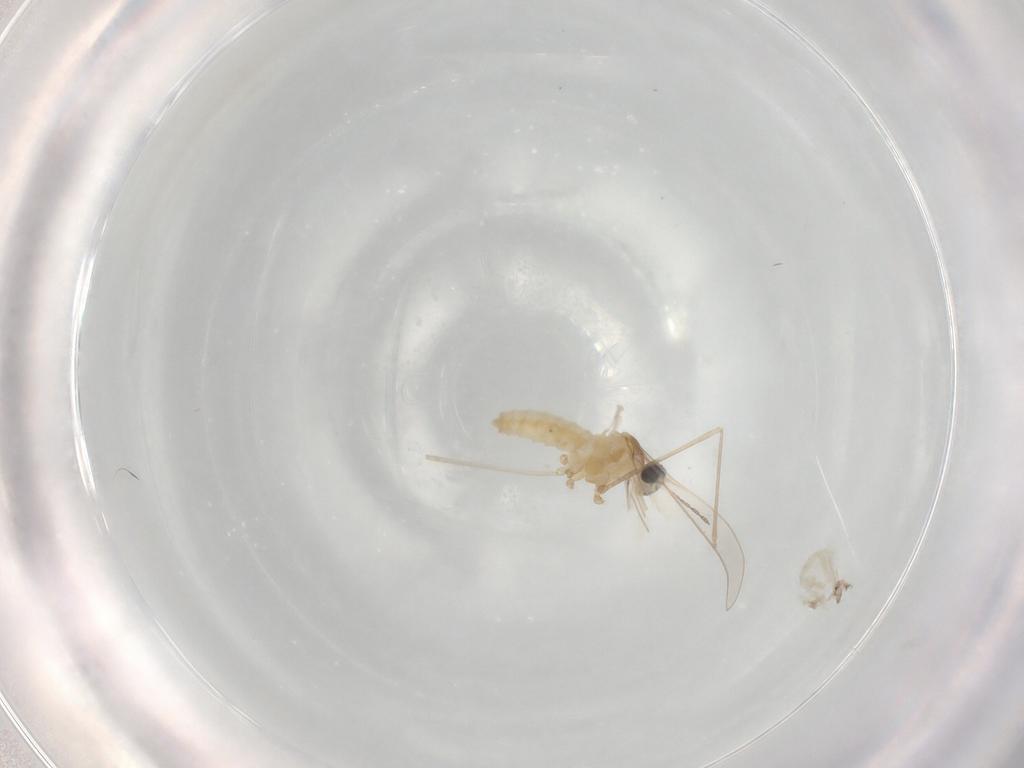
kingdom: Animalia
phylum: Arthropoda
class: Insecta
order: Diptera
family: Cecidomyiidae
